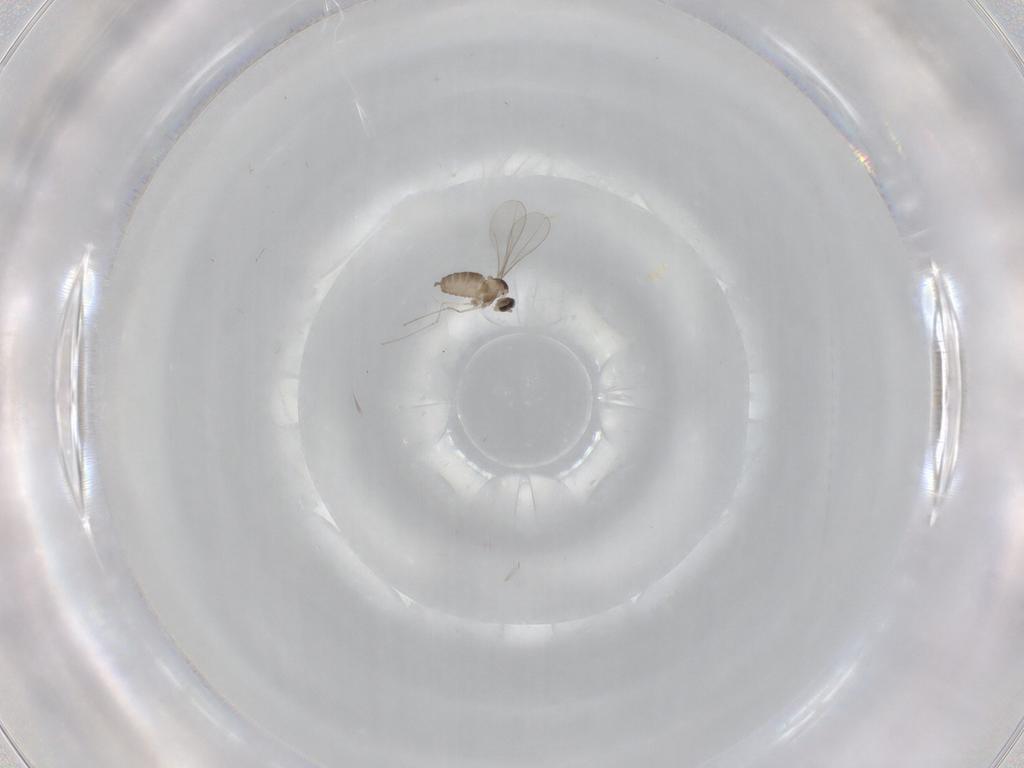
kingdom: Animalia
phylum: Arthropoda
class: Insecta
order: Diptera
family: Cecidomyiidae
